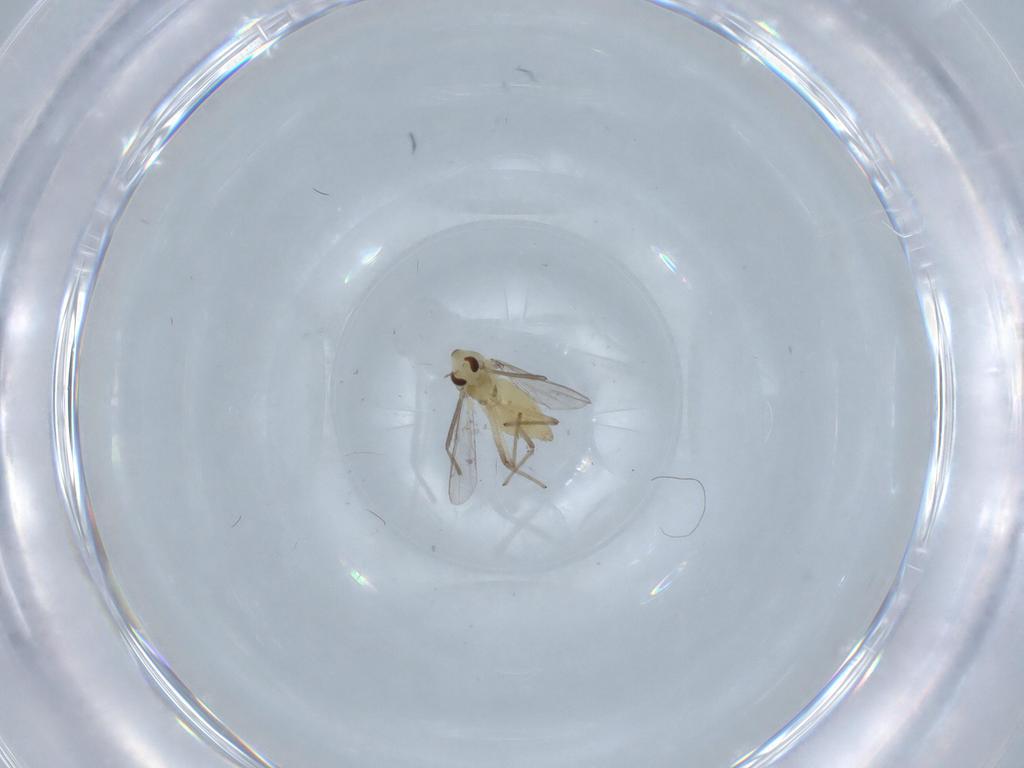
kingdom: Animalia
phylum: Arthropoda
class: Insecta
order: Diptera
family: Chironomidae
